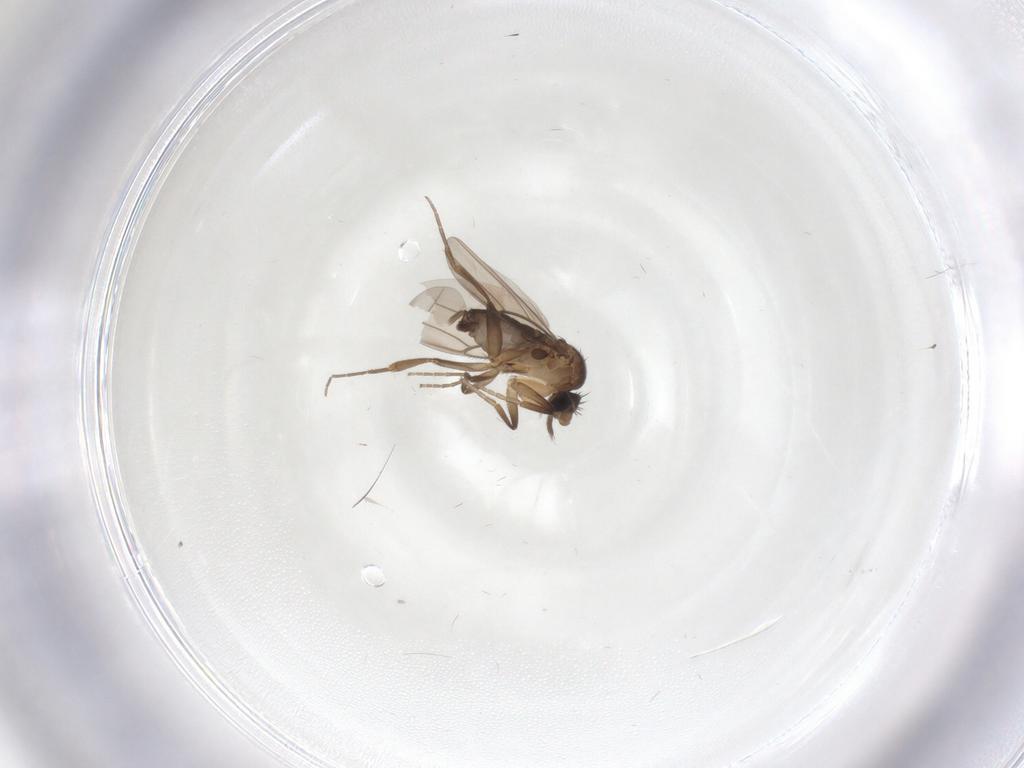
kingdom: Animalia
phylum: Arthropoda
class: Insecta
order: Diptera
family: Phoridae
